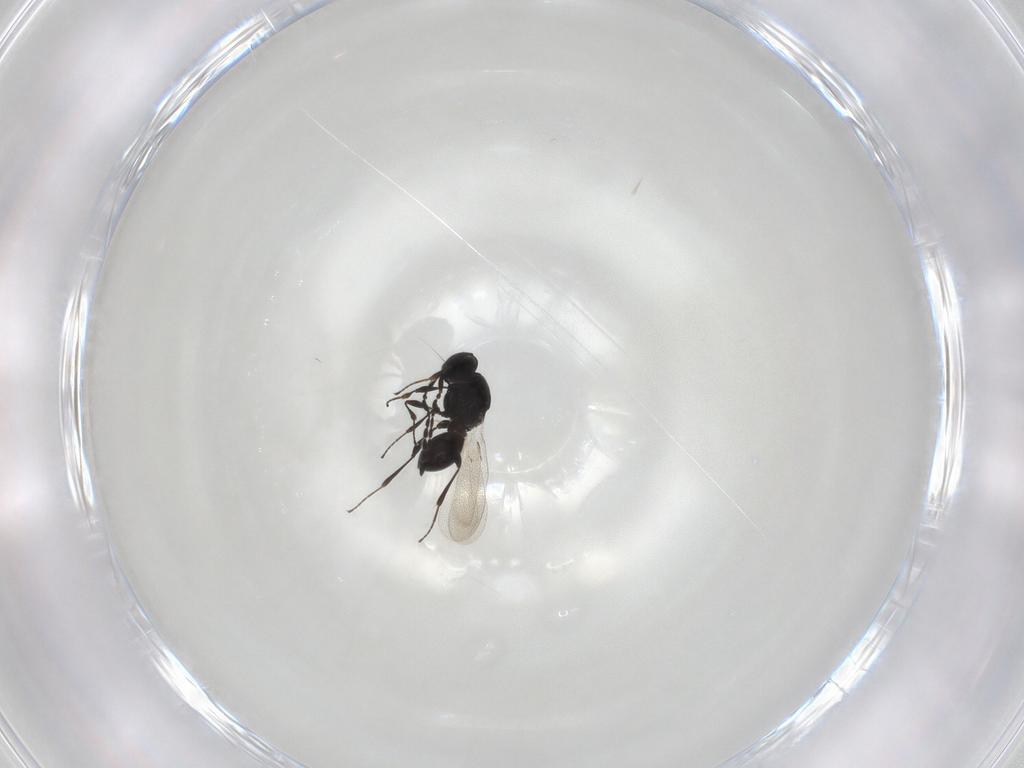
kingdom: Animalia
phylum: Arthropoda
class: Insecta
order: Hymenoptera
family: Platygastridae
